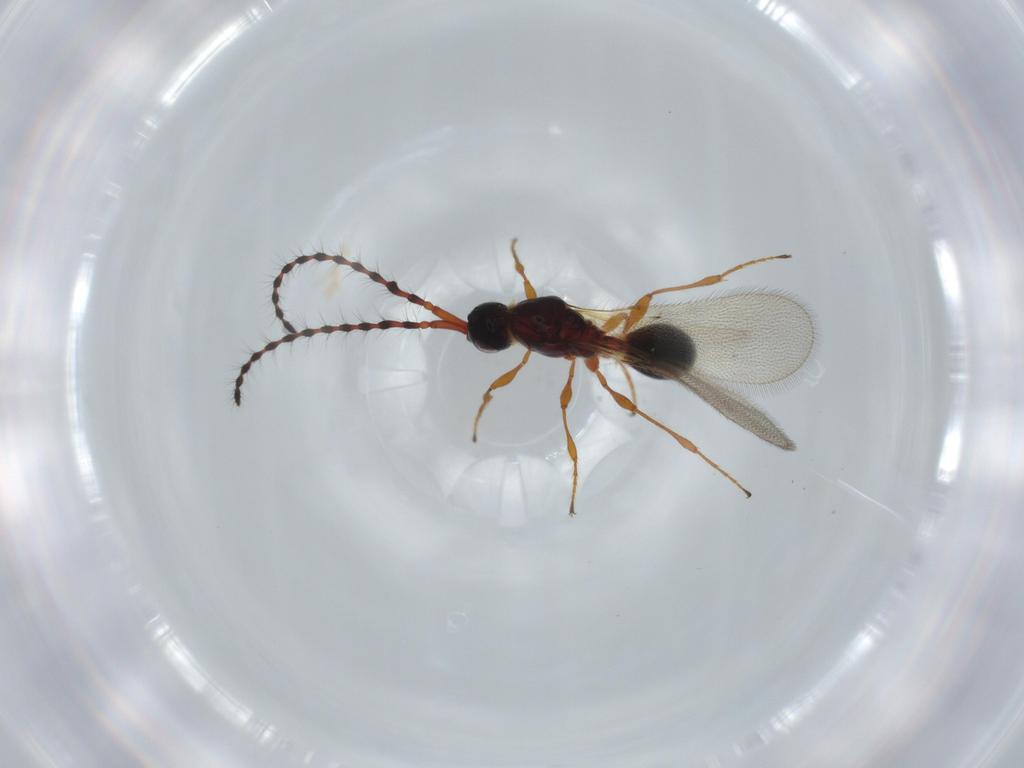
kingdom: Animalia
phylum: Arthropoda
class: Insecta
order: Hymenoptera
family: Diapriidae
